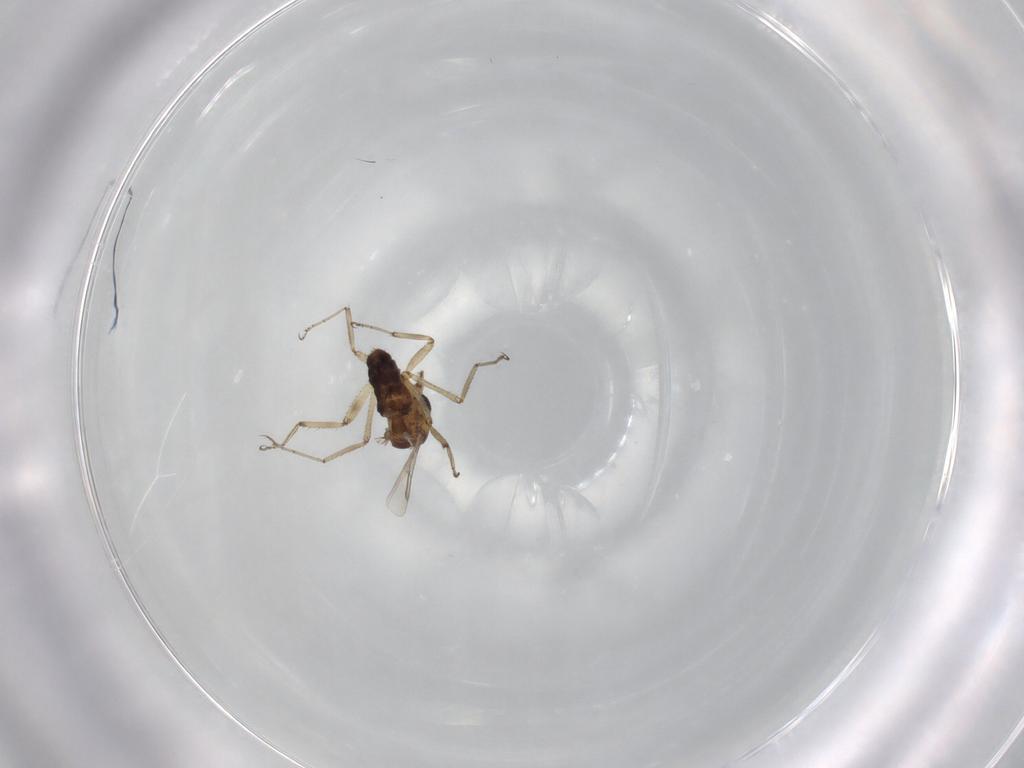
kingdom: Animalia
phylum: Arthropoda
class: Insecta
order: Diptera
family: Ceratopogonidae
